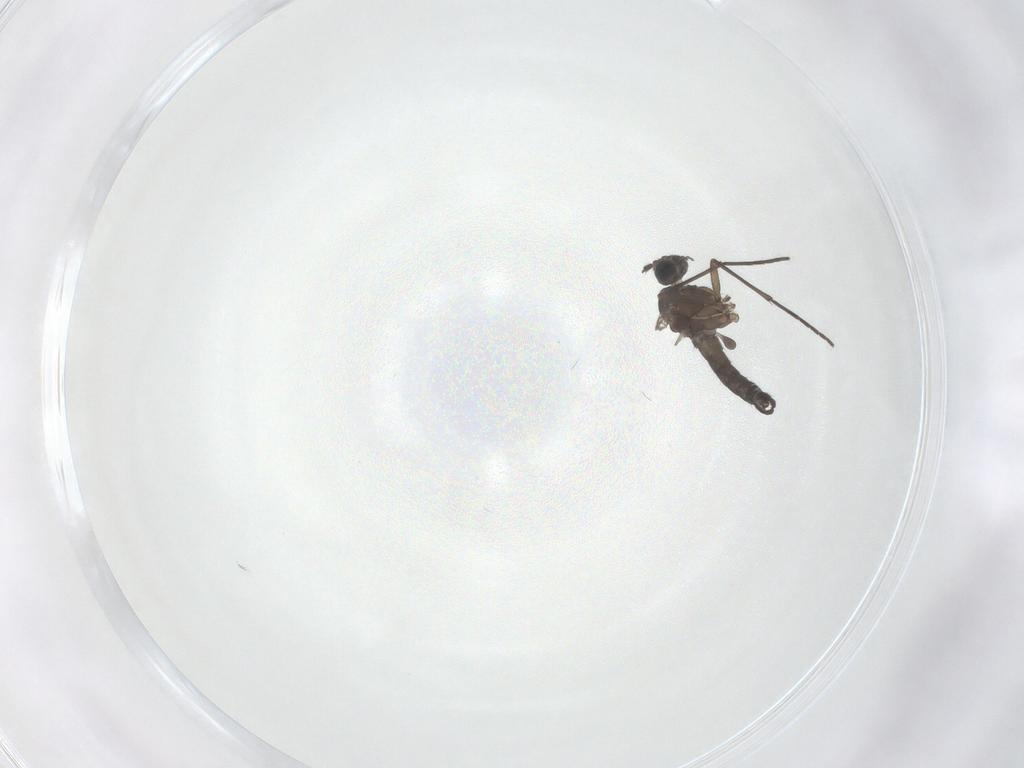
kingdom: Animalia
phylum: Arthropoda
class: Insecta
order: Diptera
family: Sciaridae
